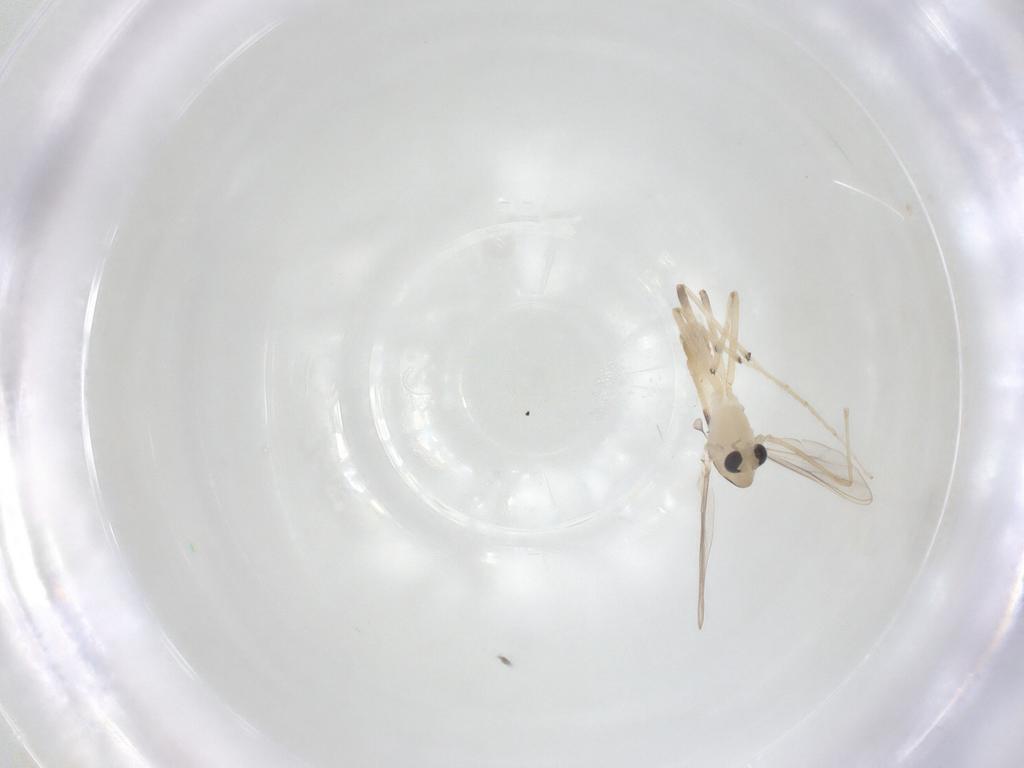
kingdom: Animalia
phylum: Arthropoda
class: Insecta
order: Diptera
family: Chironomidae
